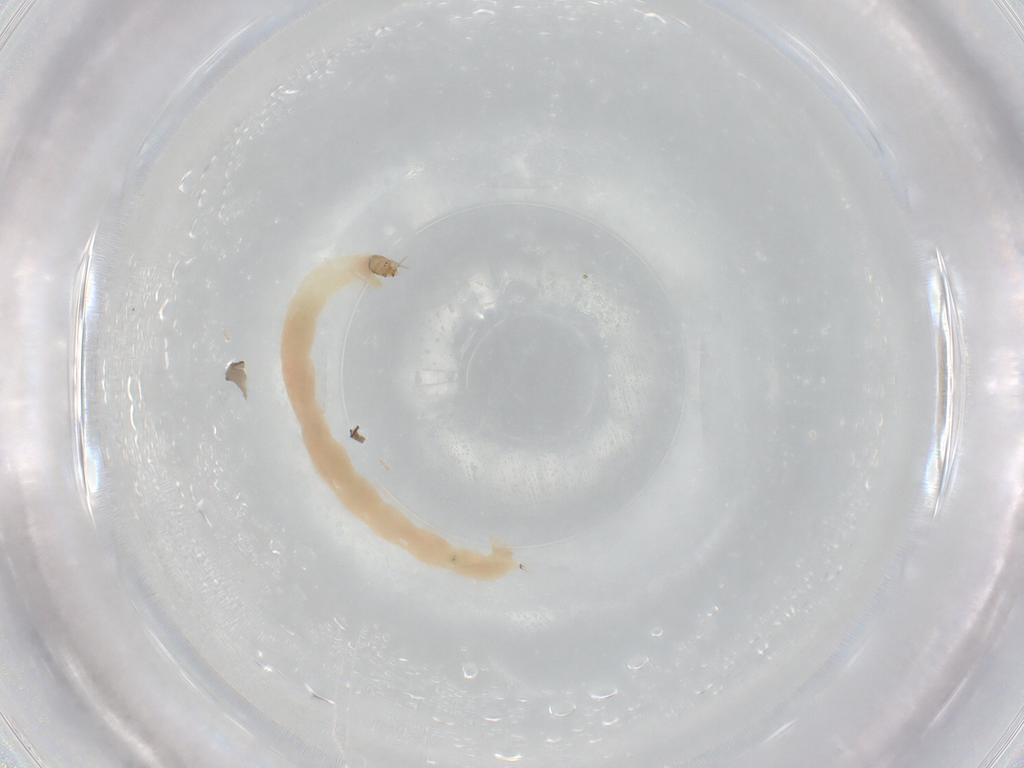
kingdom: Animalia
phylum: Arthropoda
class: Insecta
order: Diptera
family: Chironomidae
